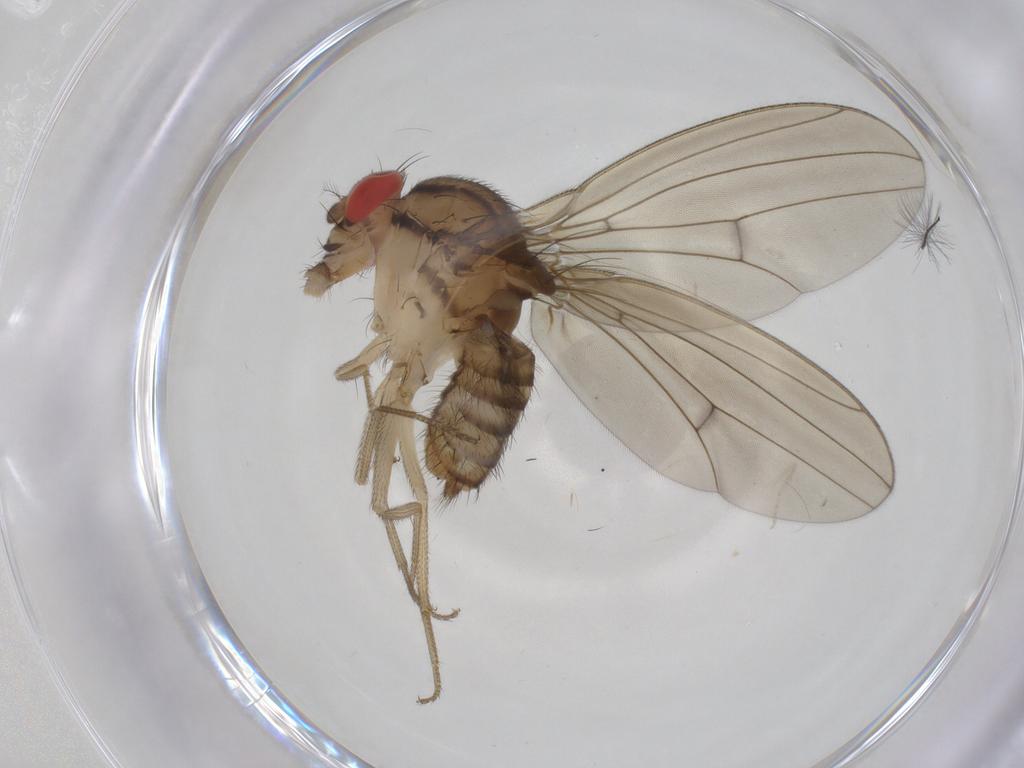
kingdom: Animalia
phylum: Arthropoda
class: Insecta
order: Diptera
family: Drosophilidae
